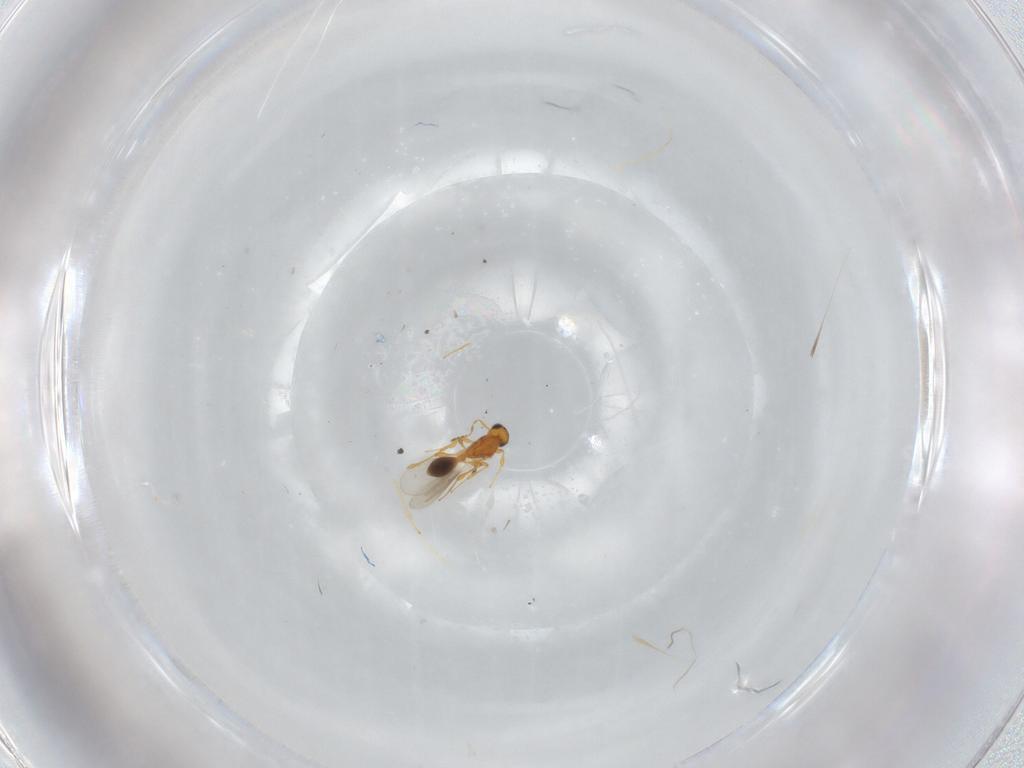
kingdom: Animalia
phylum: Arthropoda
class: Insecta
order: Hymenoptera
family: Platygastridae
